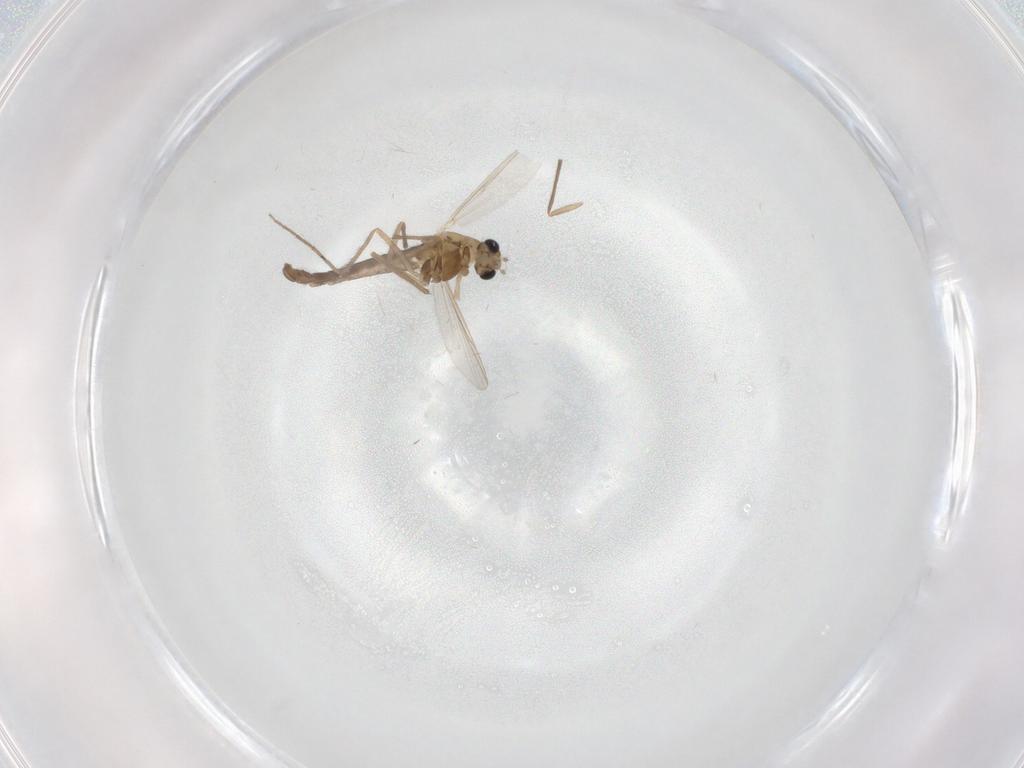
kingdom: Animalia
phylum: Arthropoda
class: Insecta
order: Diptera
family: Chironomidae
